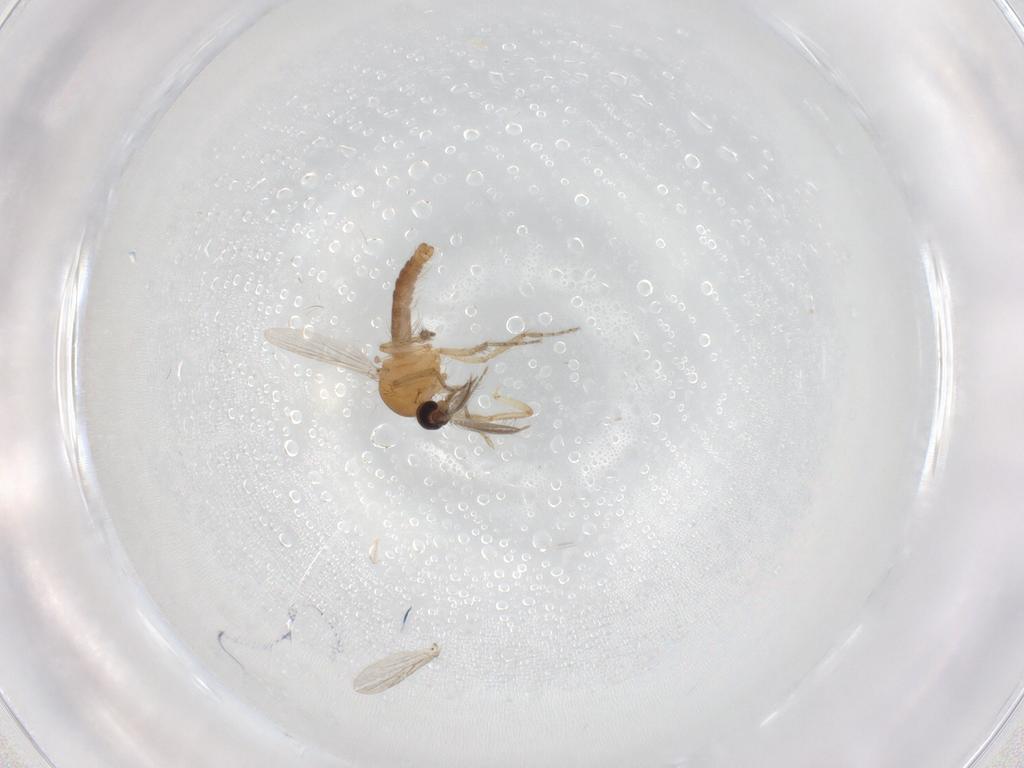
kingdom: Animalia
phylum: Arthropoda
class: Insecta
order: Diptera
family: Ceratopogonidae
